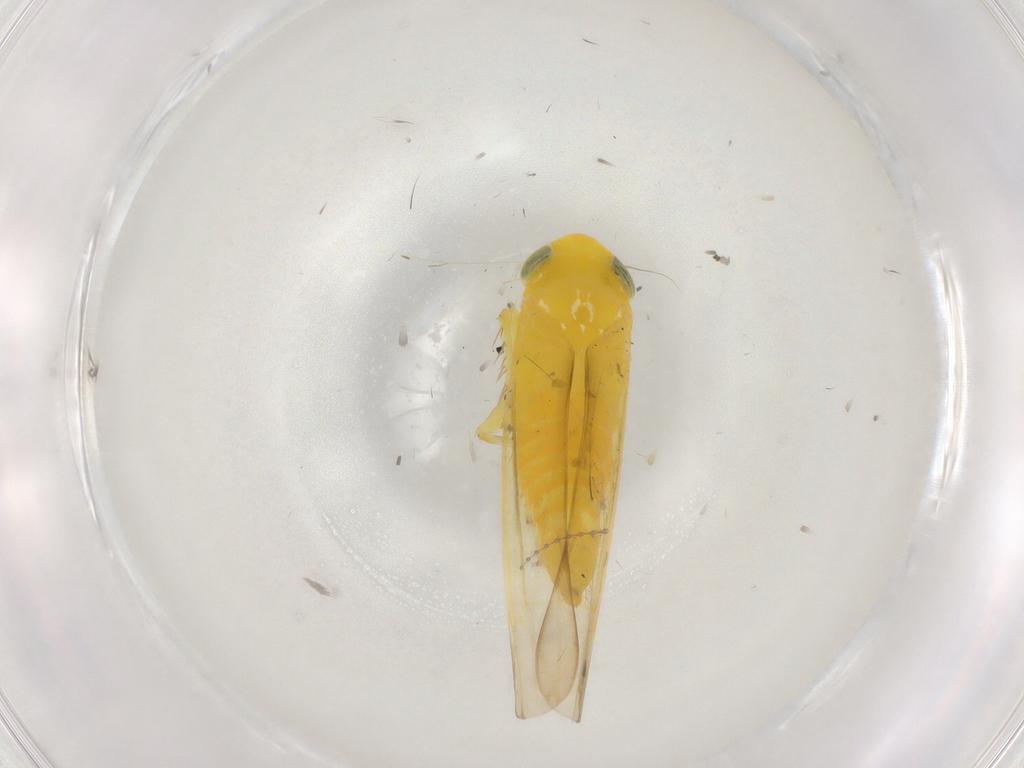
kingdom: Animalia
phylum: Arthropoda
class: Insecta
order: Hemiptera
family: Cicadellidae
